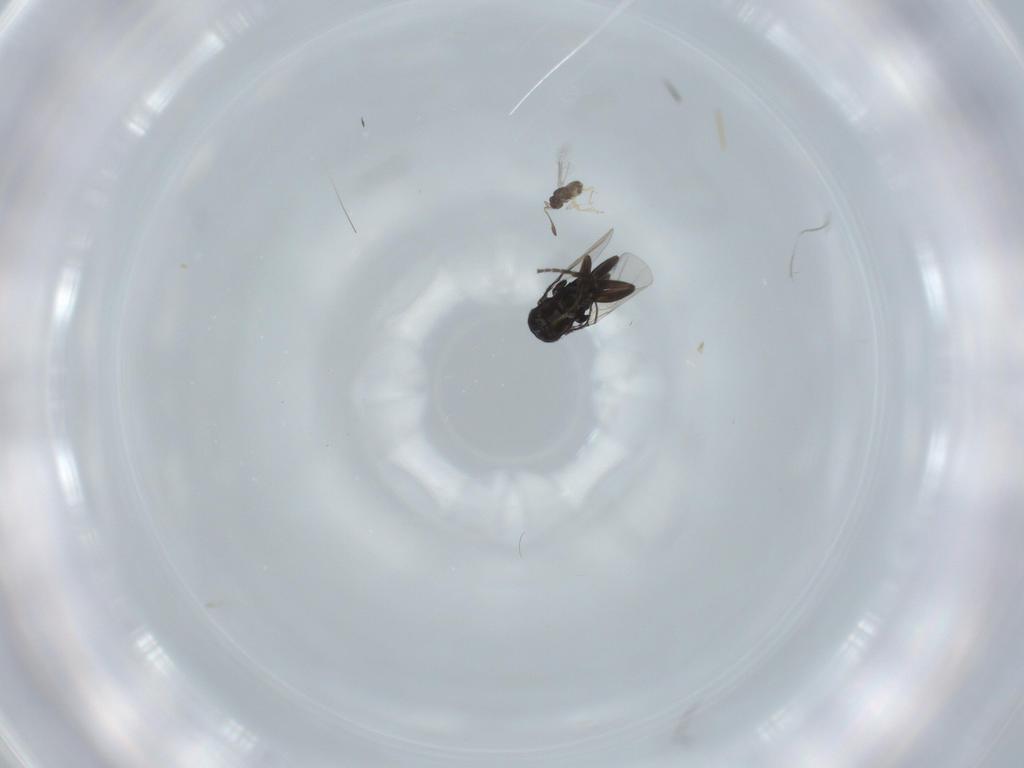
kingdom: Animalia
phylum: Arthropoda
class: Insecta
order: Diptera
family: Phoridae
